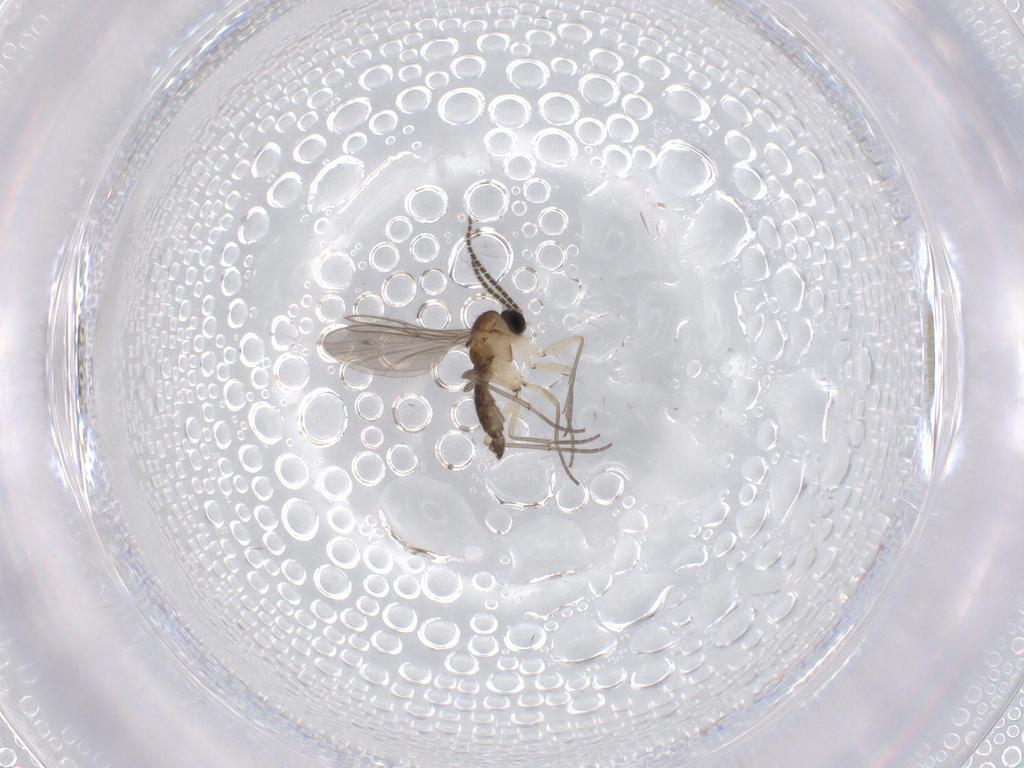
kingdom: Animalia
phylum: Arthropoda
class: Insecta
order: Diptera
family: Sciaridae
